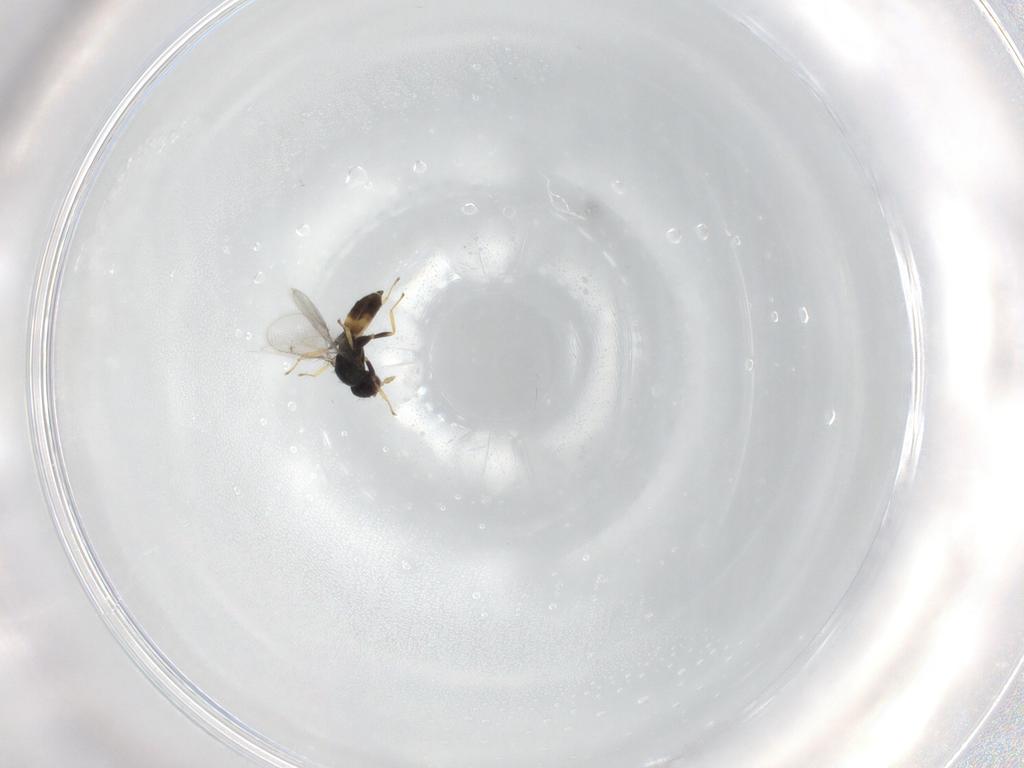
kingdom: Animalia
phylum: Arthropoda
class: Insecta
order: Hymenoptera
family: Eulophidae
